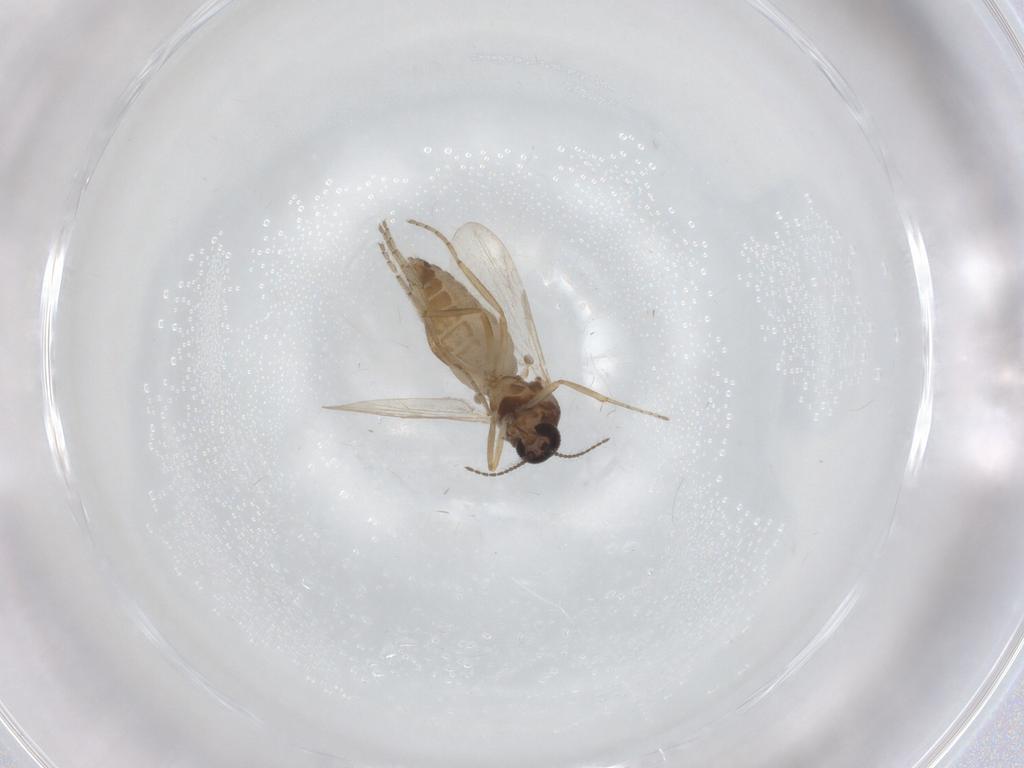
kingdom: Animalia
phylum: Arthropoda
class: Insecta
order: Diptera
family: Ceratopogonidae
